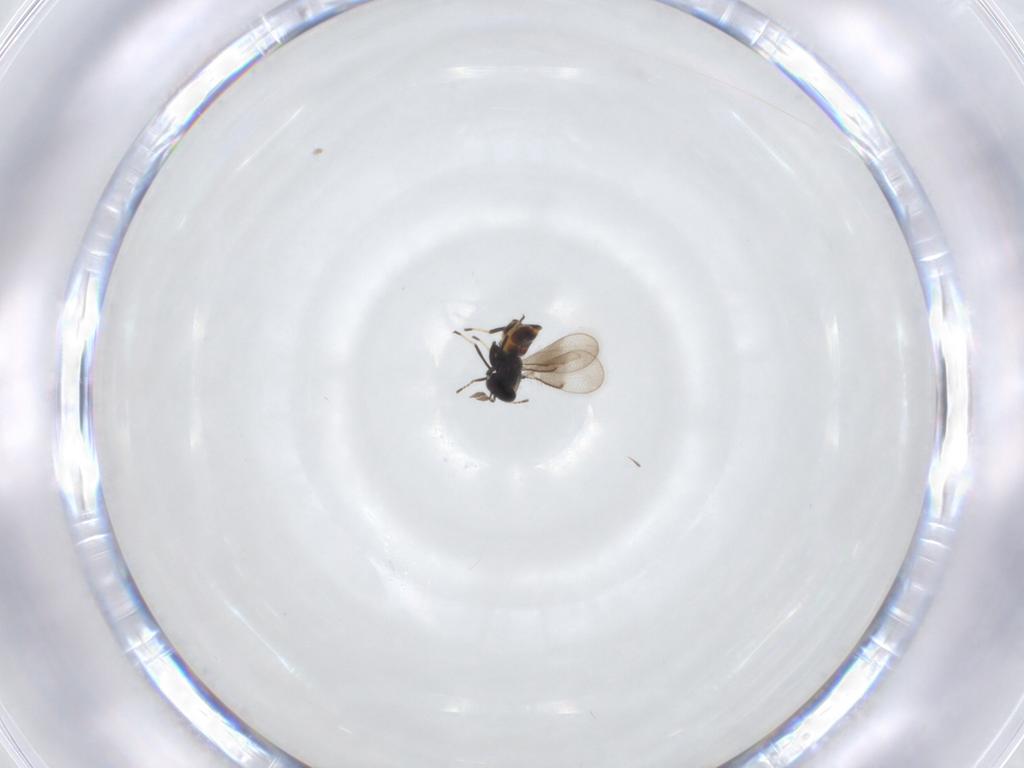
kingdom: Animalia
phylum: Arthropoda
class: Insecta
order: Hymenoptera
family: Eulophidae
